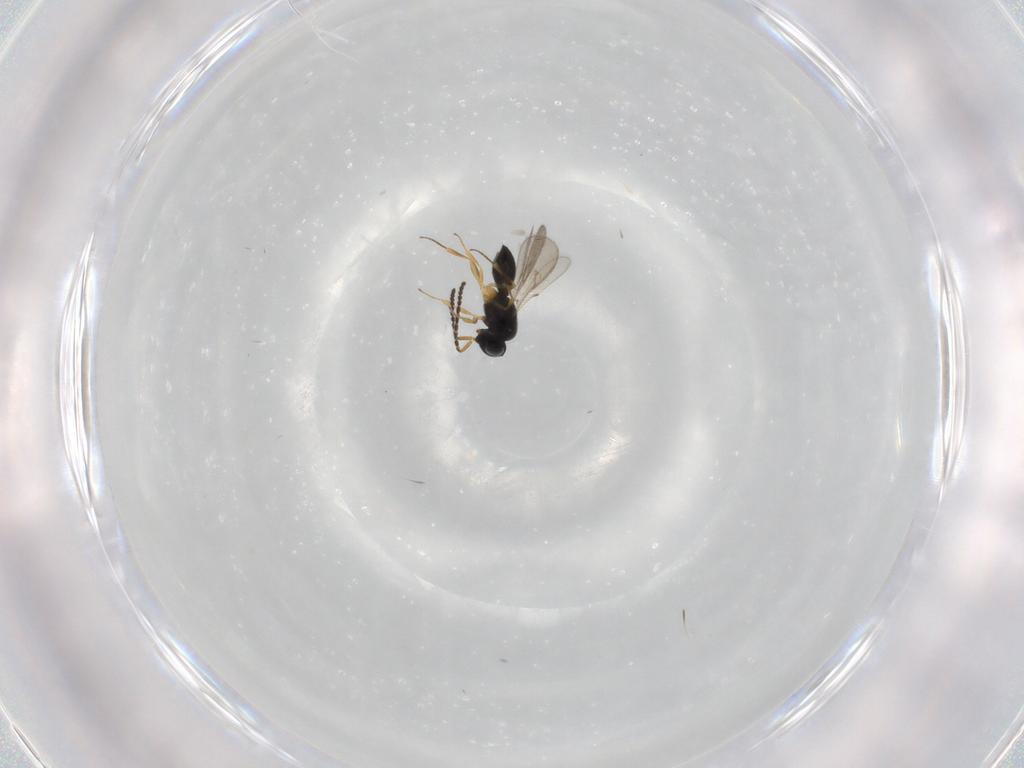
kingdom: Animalia
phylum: Arthropoda
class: Insecta
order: Hymenoptera
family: Scelionidae
